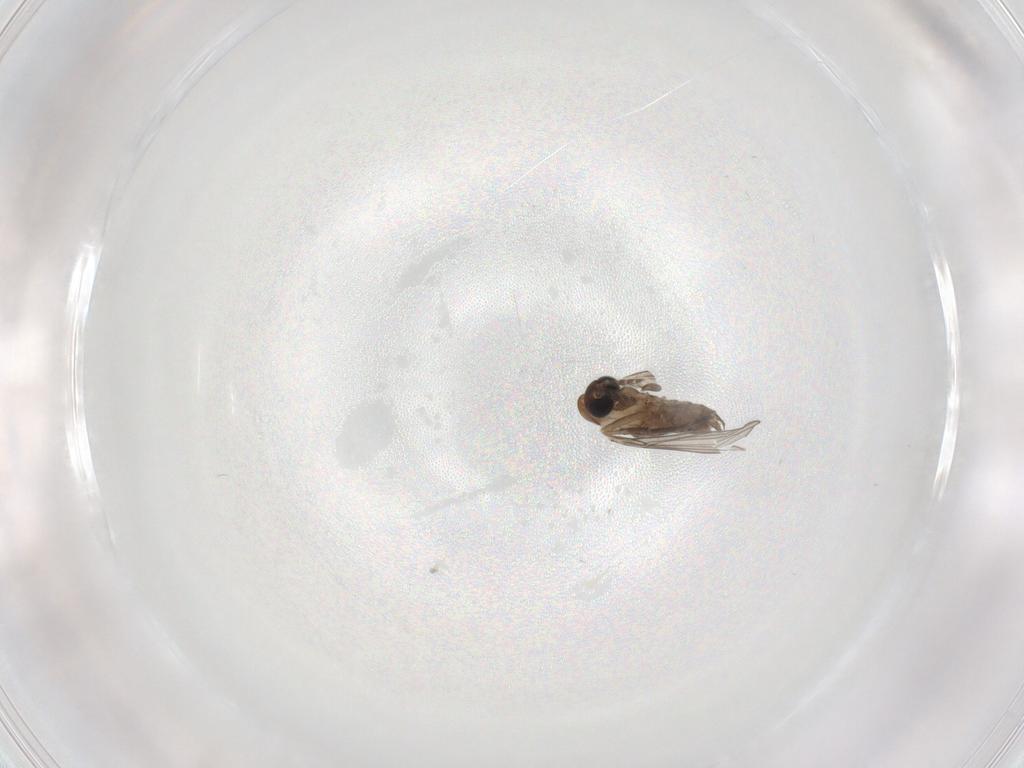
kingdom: Animalia
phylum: Arthropoda
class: Insecta
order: Diptera
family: Psychodidae
